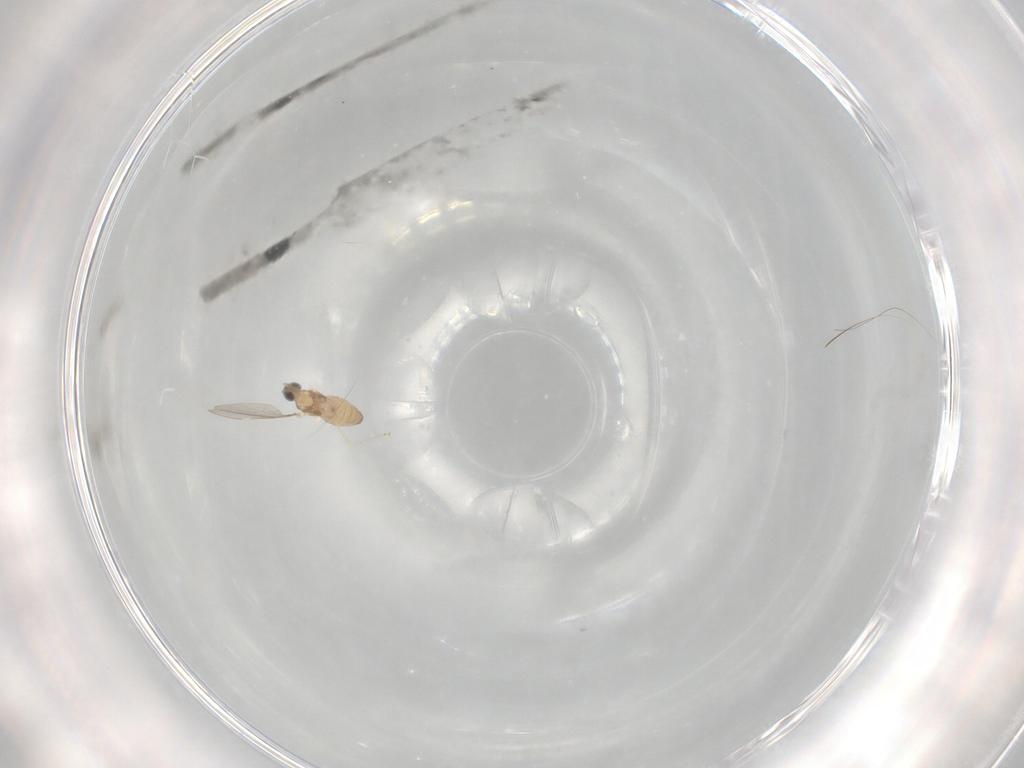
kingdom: Animalia
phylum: Arthropoda
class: Insecta
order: Diptera
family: Cecidomyiidae
